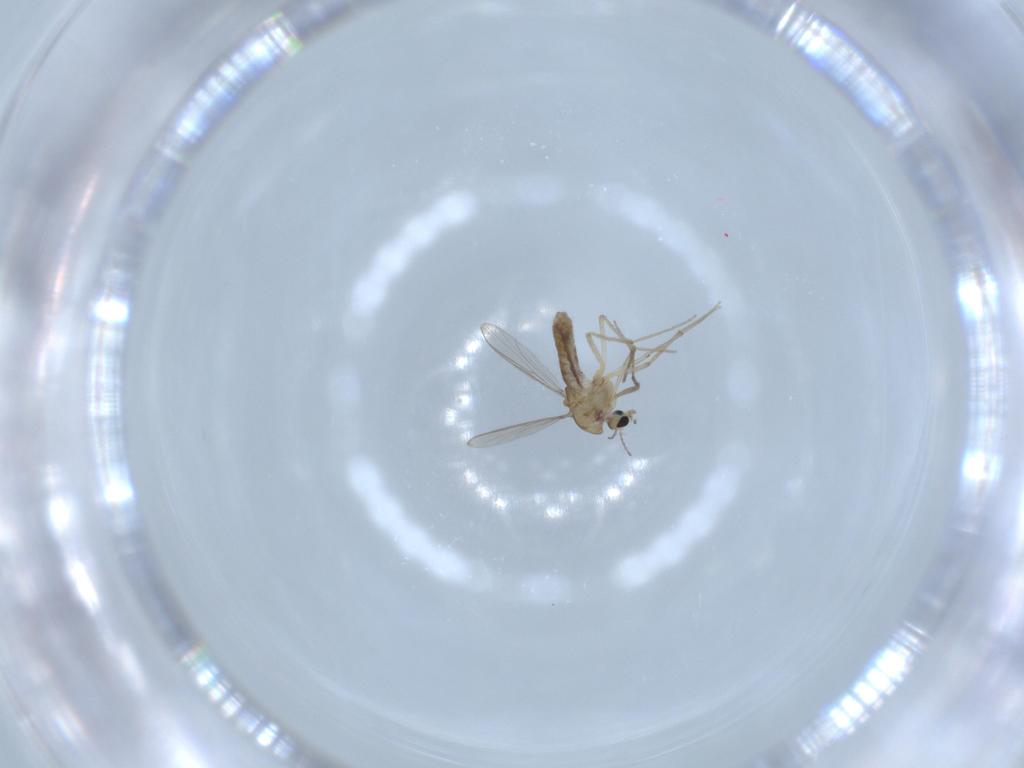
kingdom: Animalia
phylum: Arthropoda
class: Insecta
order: Diptera
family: Chironomidae
